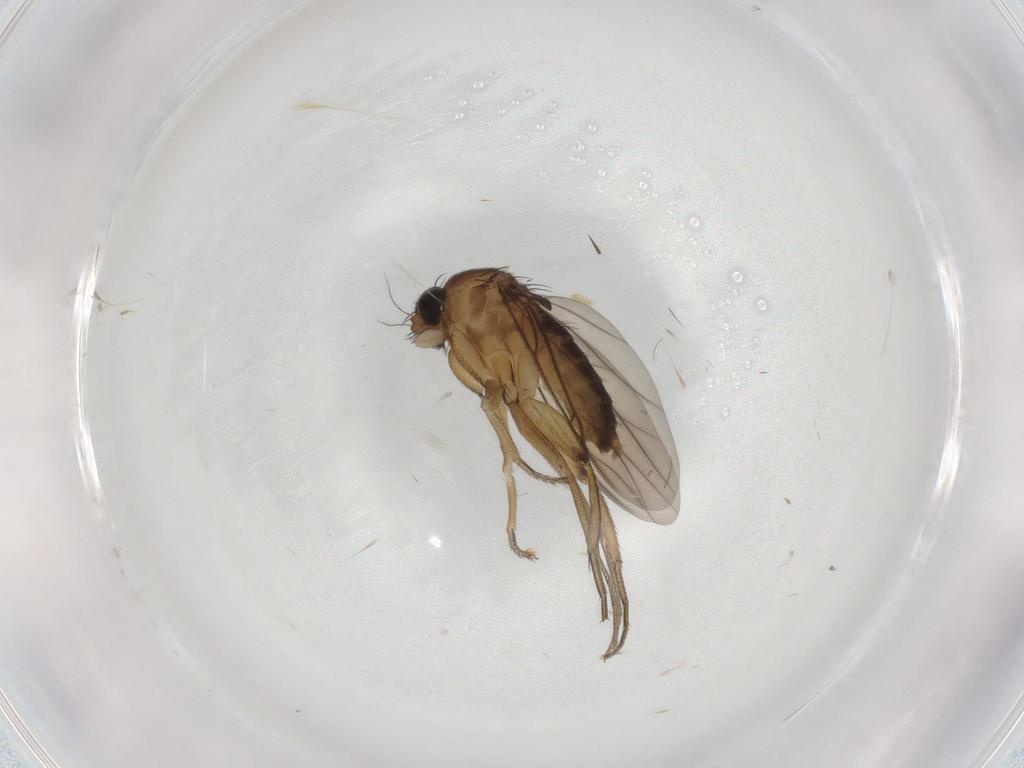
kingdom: Animalia
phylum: Arthropoda
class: Insecta
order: Diptera
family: Phoridae
